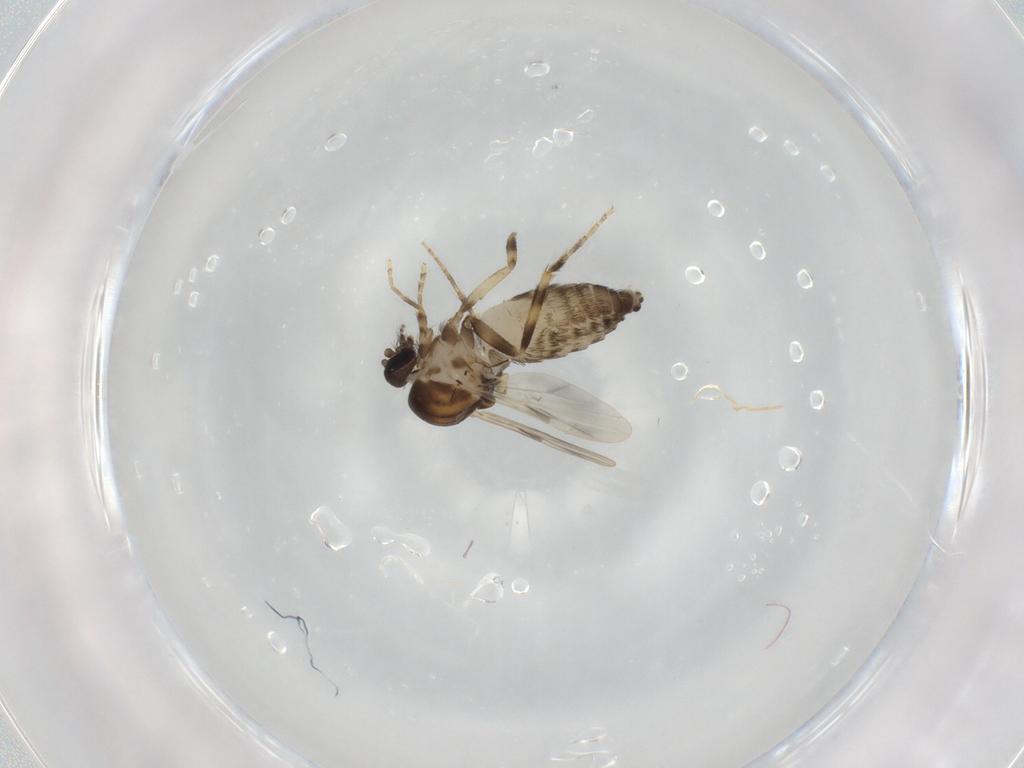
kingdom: Animalia
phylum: Arthropoda
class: Insecta
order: Diptera
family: Ceratopogonidae
